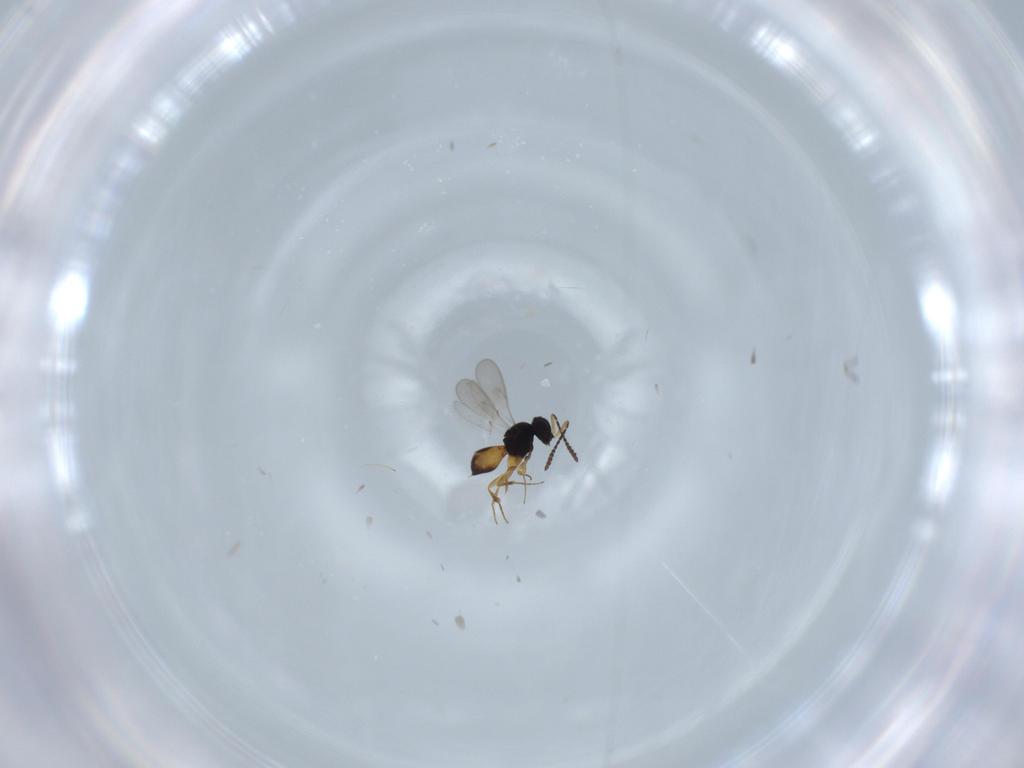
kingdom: Animalia
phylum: Arthropoda
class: Insecta
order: Hymenoptera
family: Scelionidae
